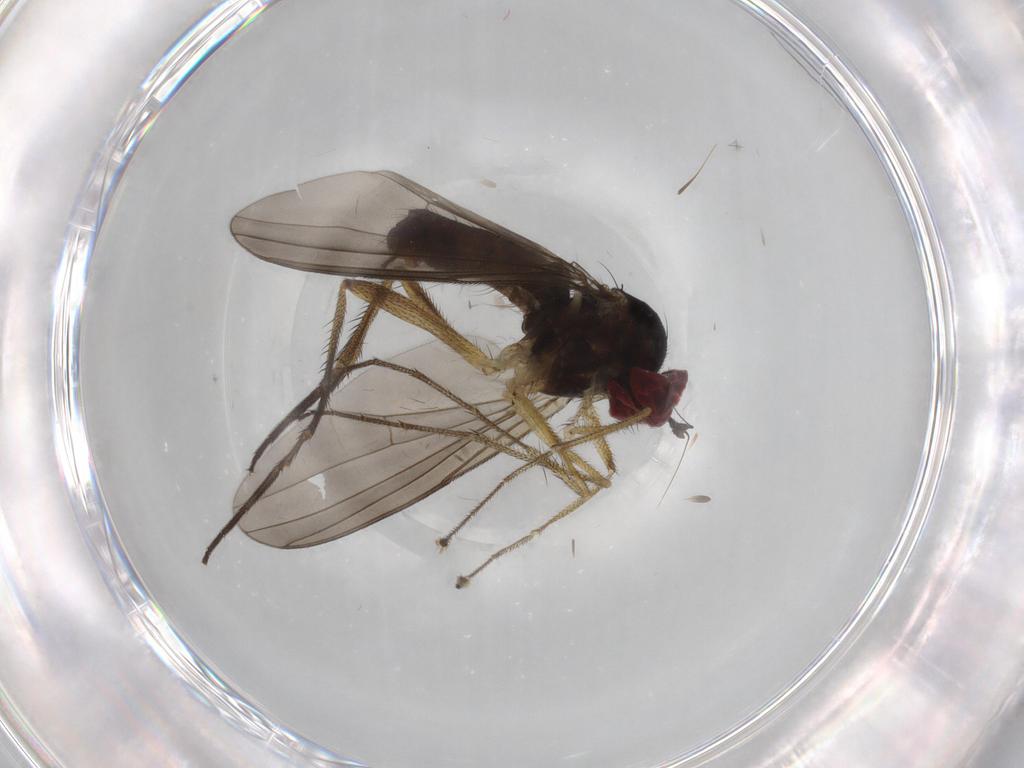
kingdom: Animalia
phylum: Arthropoda
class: Insecta
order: Diptera
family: Dolichopodidae
